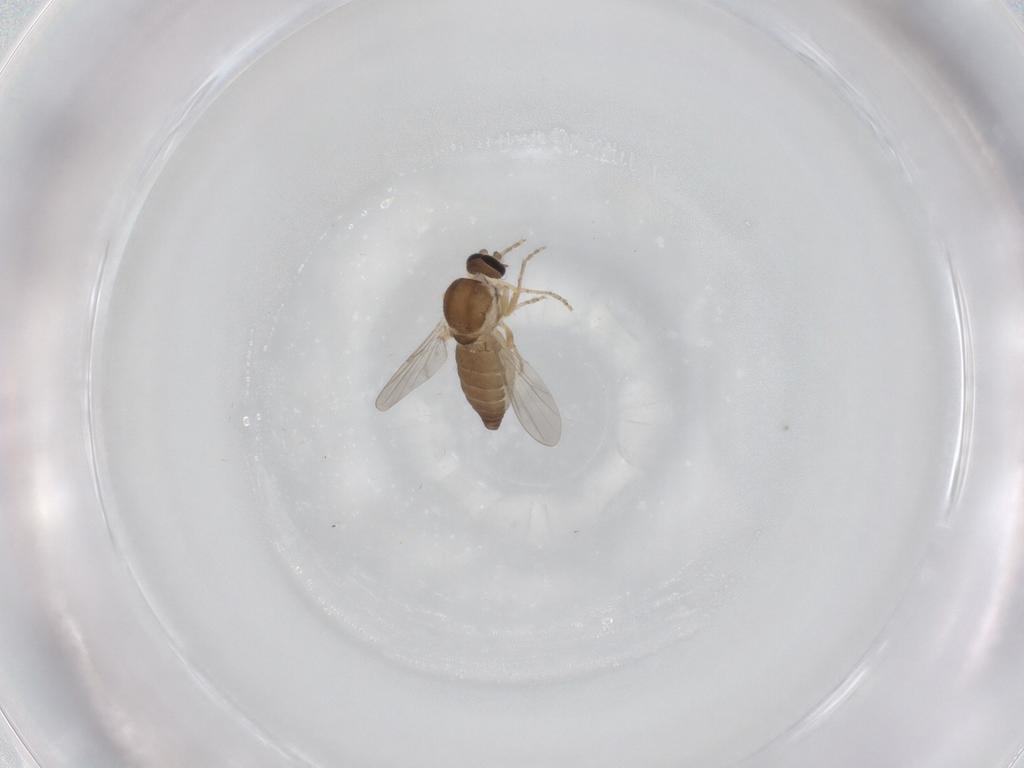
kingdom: Animalia
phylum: Arthropoda
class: Insecta
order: Diptera
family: Ceratopogonidae
